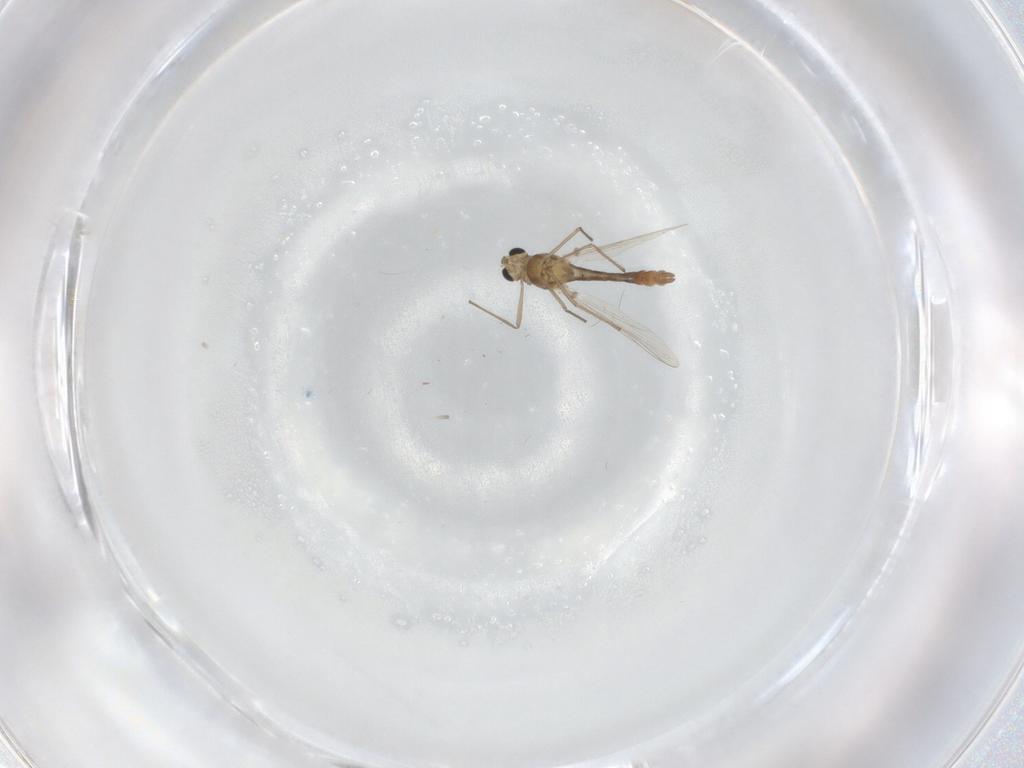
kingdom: Animalia
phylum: Arthropoda
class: Insecta
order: Diptera
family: Chironomidae
